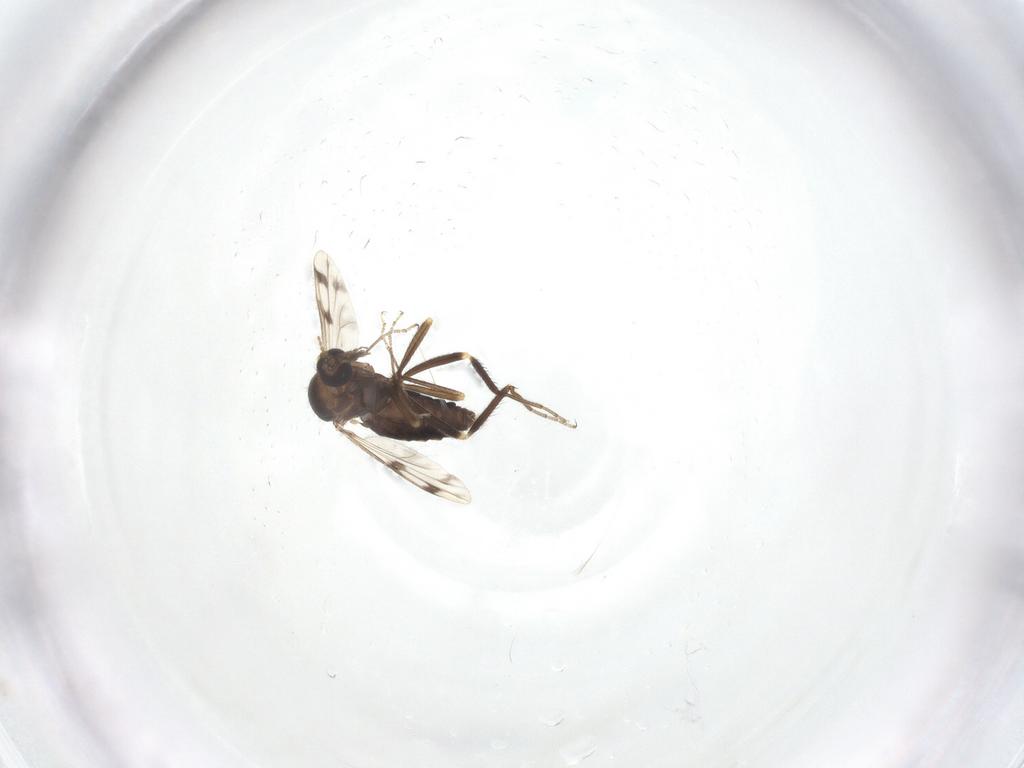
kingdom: Animalia
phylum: Arthropoda
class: Insecta
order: Diptera
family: Ceratopogonidae
